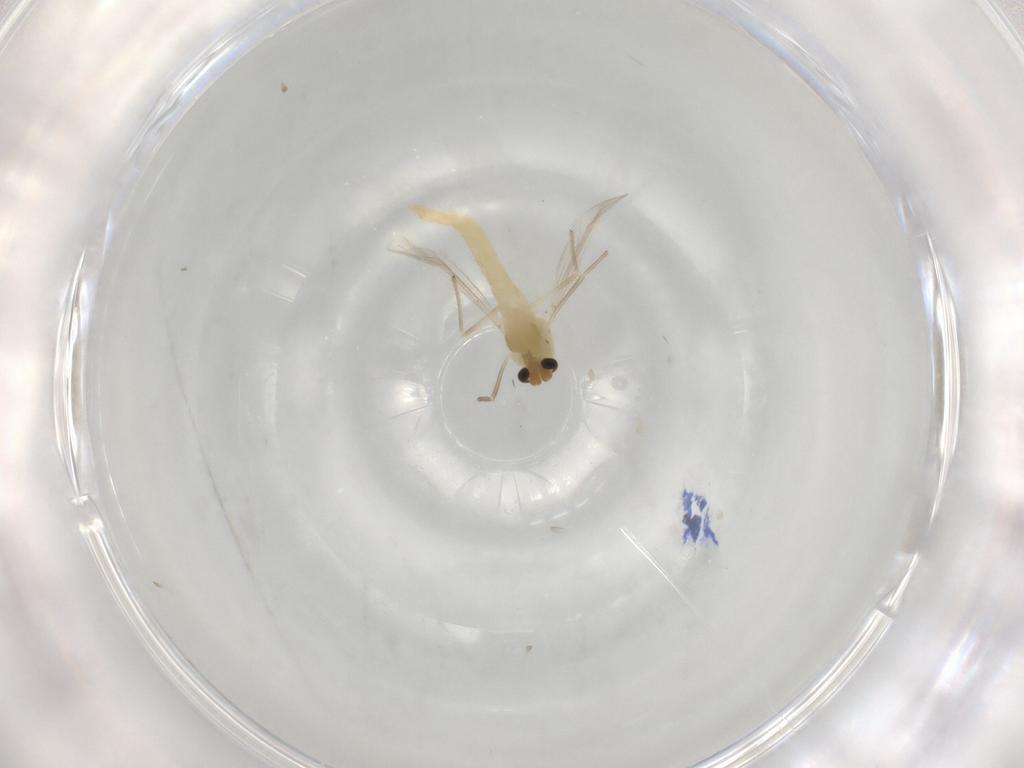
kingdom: Animalia
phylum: Arthropoda
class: Insecta
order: Diptera
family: Chironomidae
